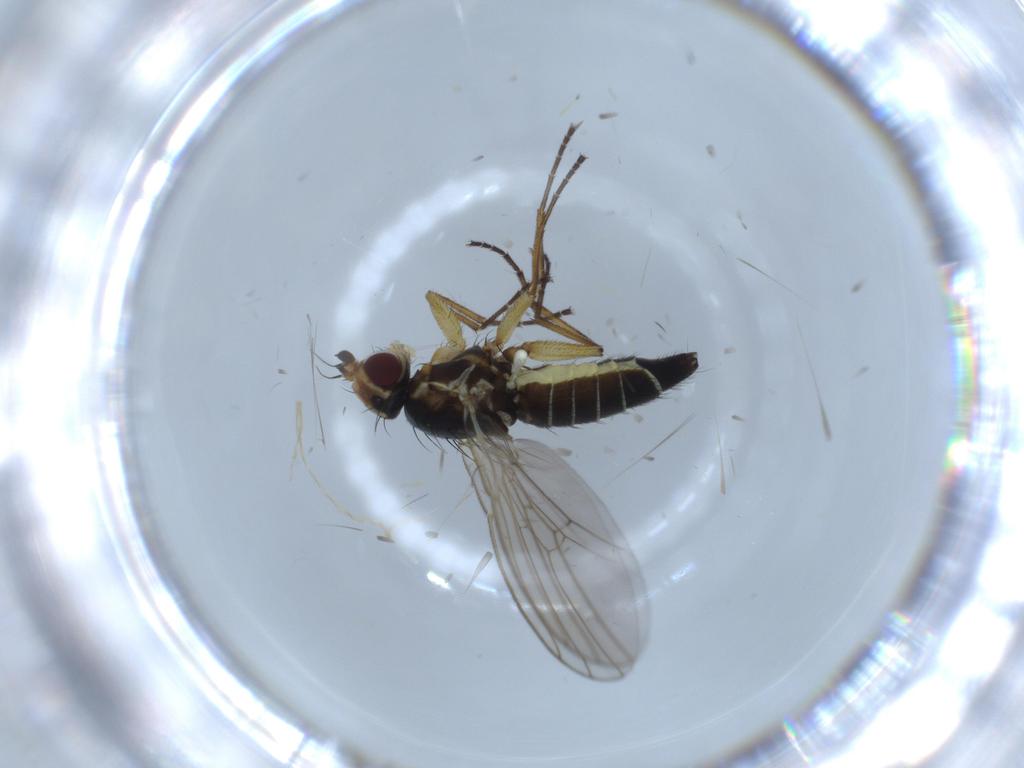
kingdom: Animalia
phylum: Arthropoda
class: Insecta
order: Diptera
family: Agromyzidae
